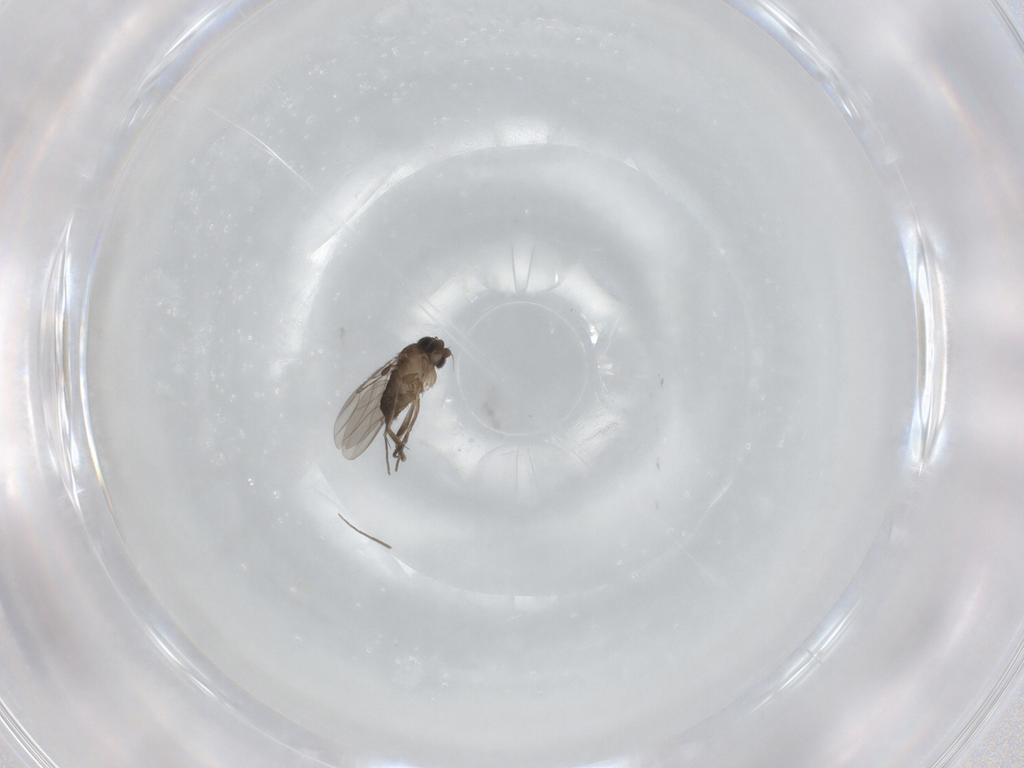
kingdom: Animalia
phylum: Arthropoda
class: Insecta
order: Diptera
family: Phoridae
